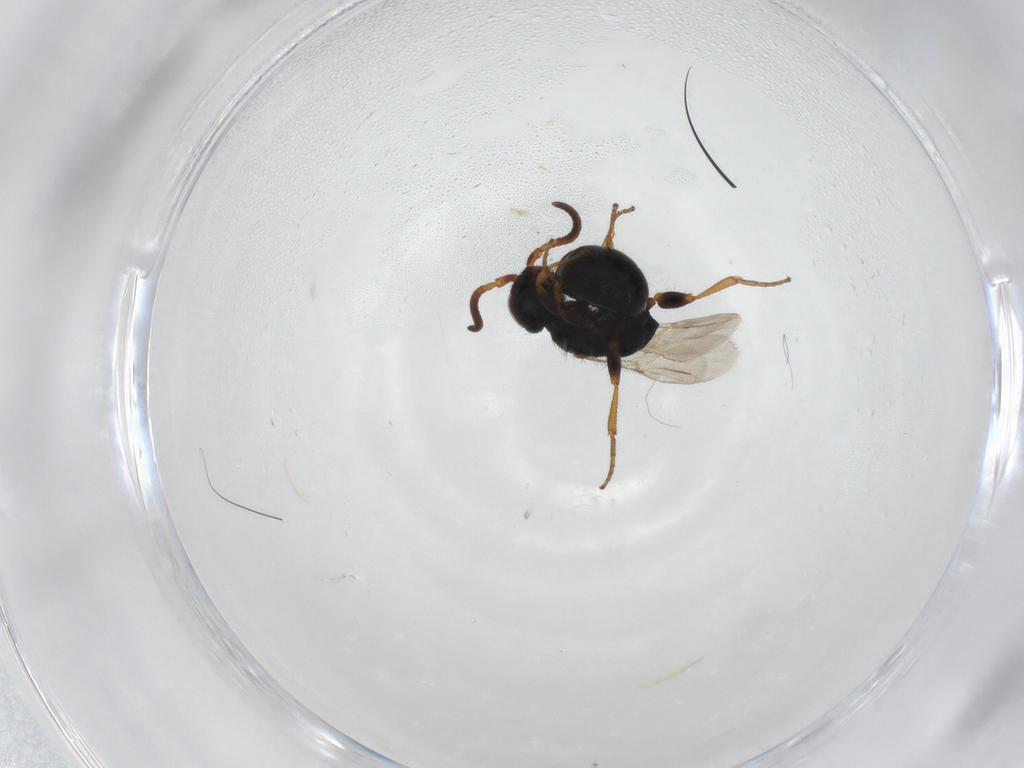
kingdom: Animalia
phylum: Arthropoda
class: Insecta
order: Hymenoptera
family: Bethylidae
